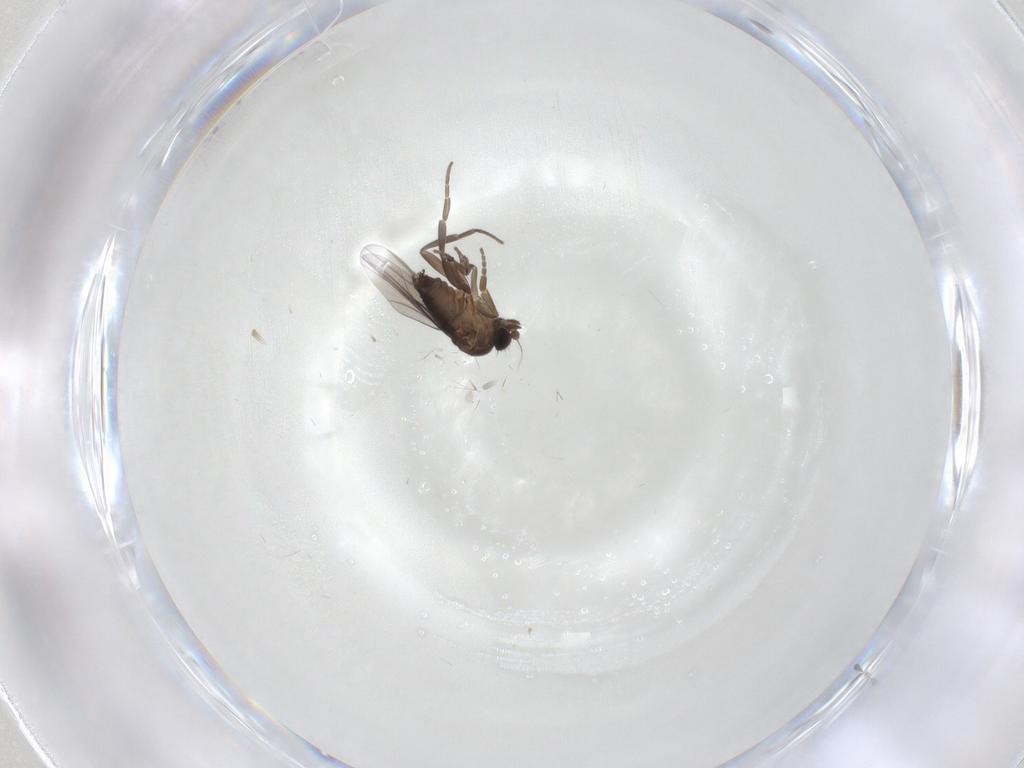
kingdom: Animalia
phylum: Arthropoda
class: Insecta
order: Diptera
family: Phoridae
